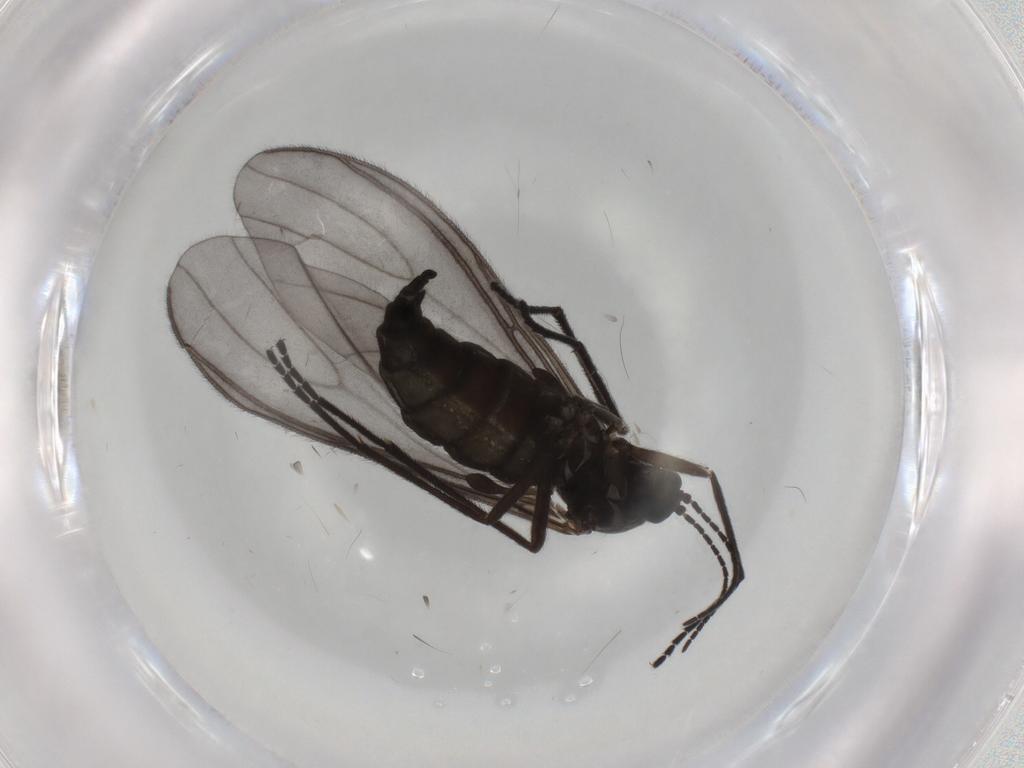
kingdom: Animalia
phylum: Arthropoda
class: Insecta
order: Diptera
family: Sciaridae
